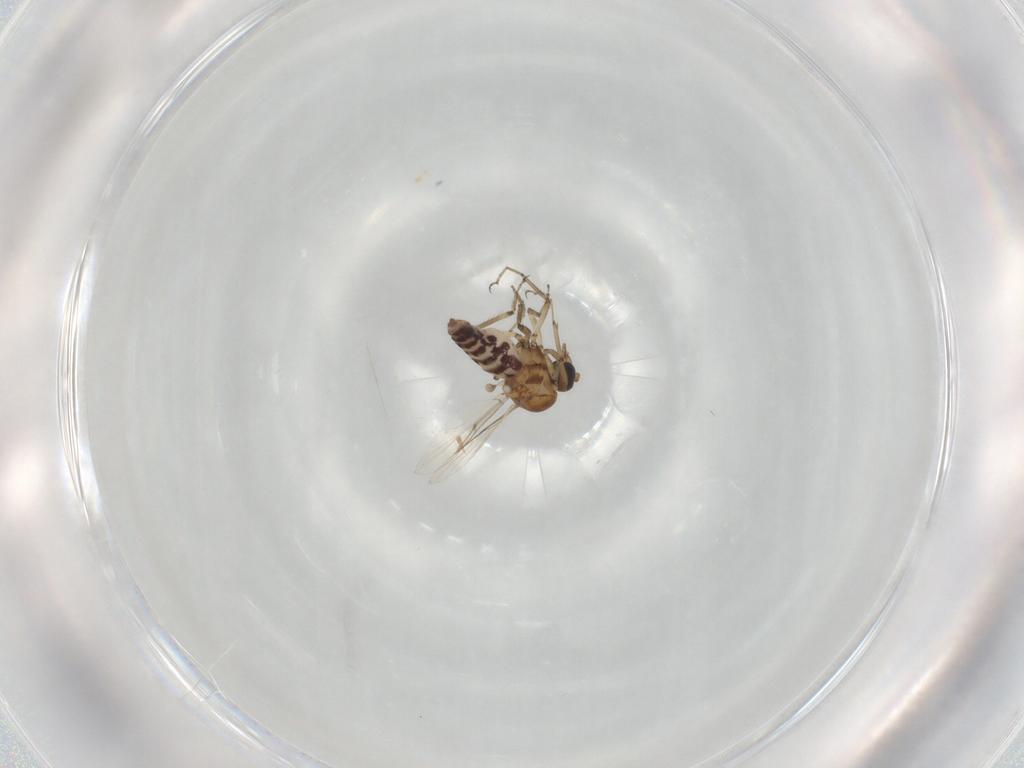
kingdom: Animalia
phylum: Arthropoda
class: Insecta
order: Diptera
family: Ceratopogonidae
